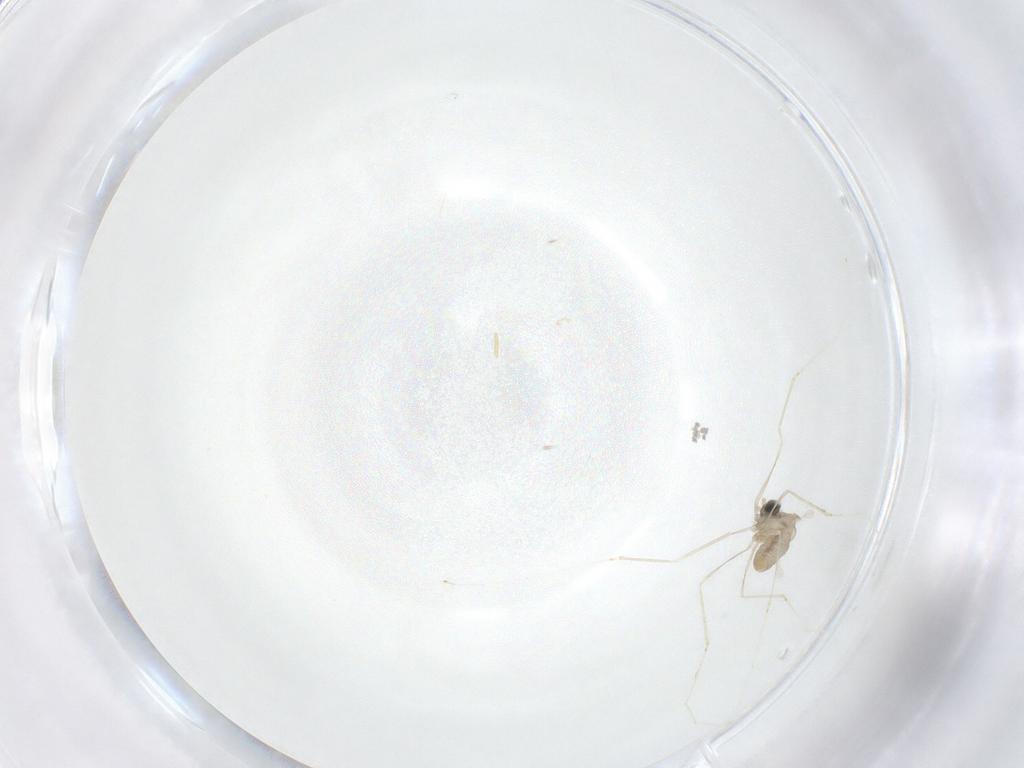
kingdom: Animalia
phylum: Arthropoda
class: Insecta
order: Diptera
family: Cecidomyiidae
